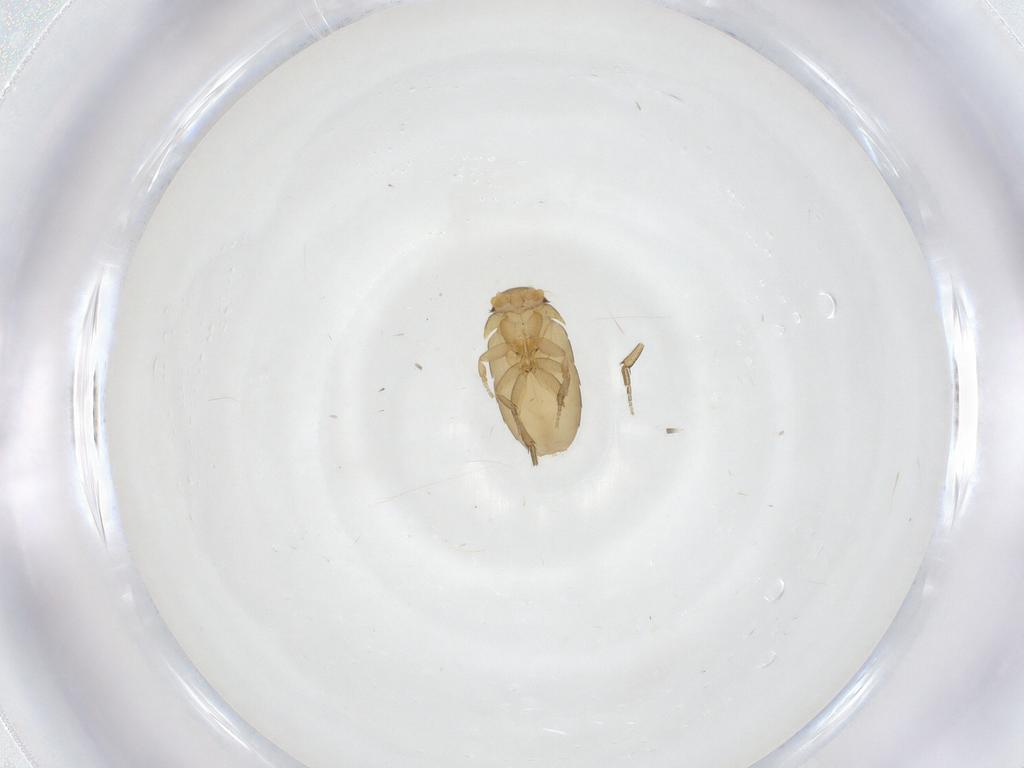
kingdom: Animalia
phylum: Arthropoda
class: Insecta
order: Diptera
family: Phoridae
